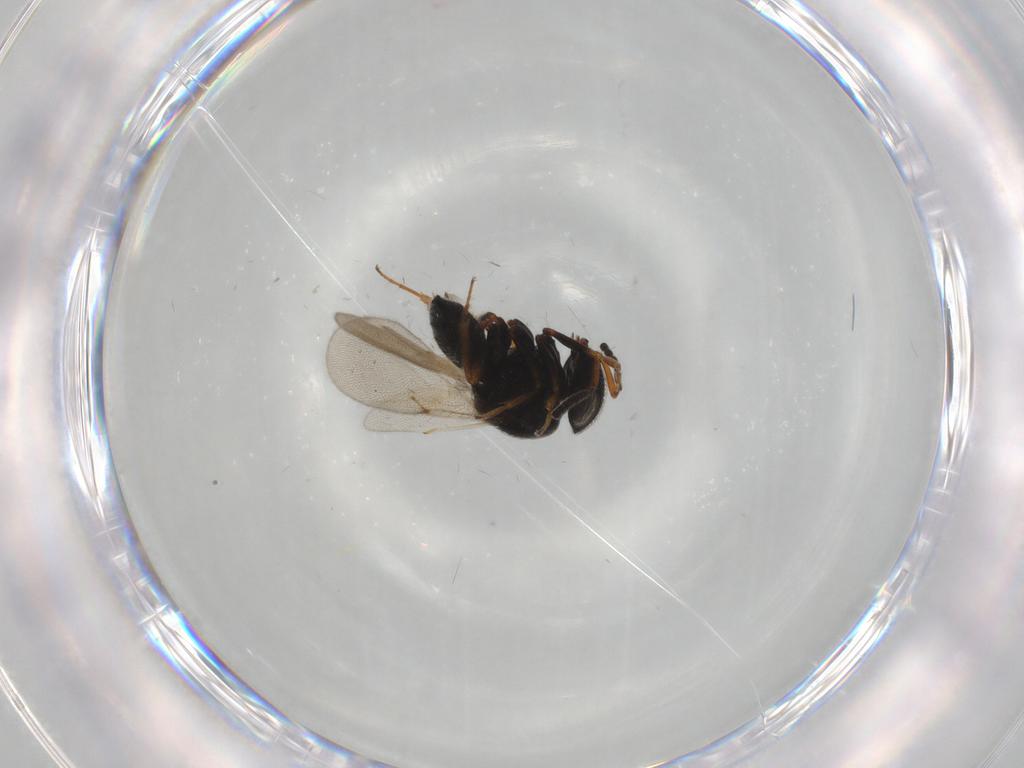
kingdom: Animalia
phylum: Arthropoda
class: Insecta
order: Hymenoptera
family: Scelionidae
